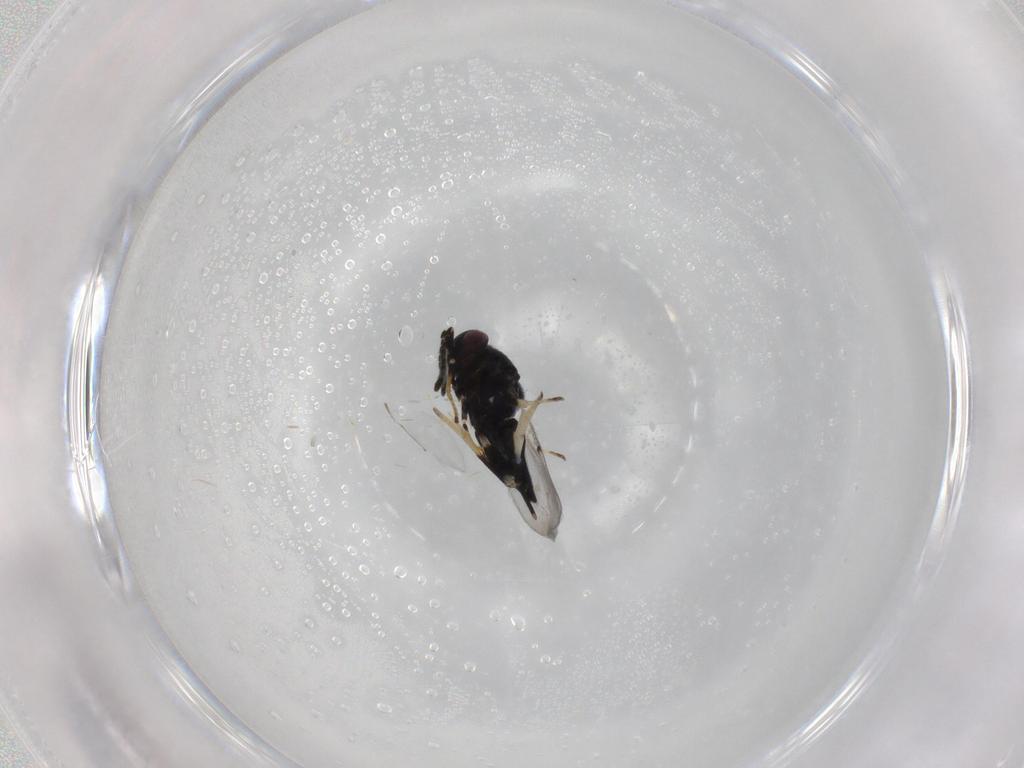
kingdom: Animalia
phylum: Arthropoda
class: Insecta
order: Hymenoptera
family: Encyrtidae
